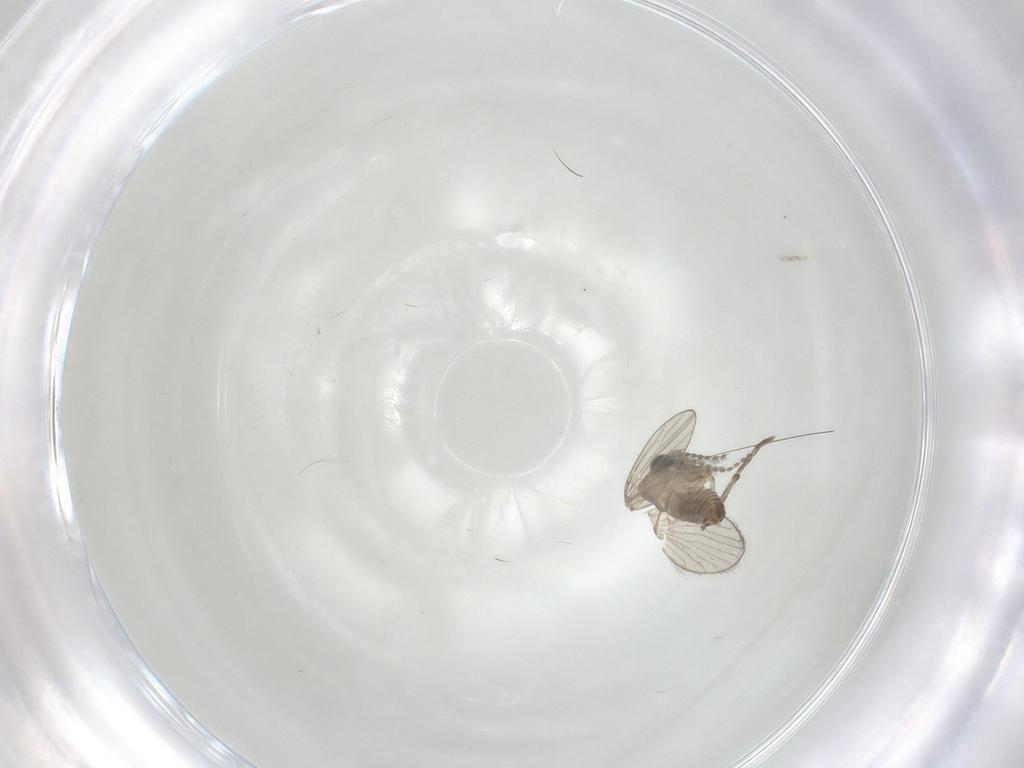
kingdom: Animalia
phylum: Arthropoda
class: Insecta
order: Diptera
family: Psychodidae
